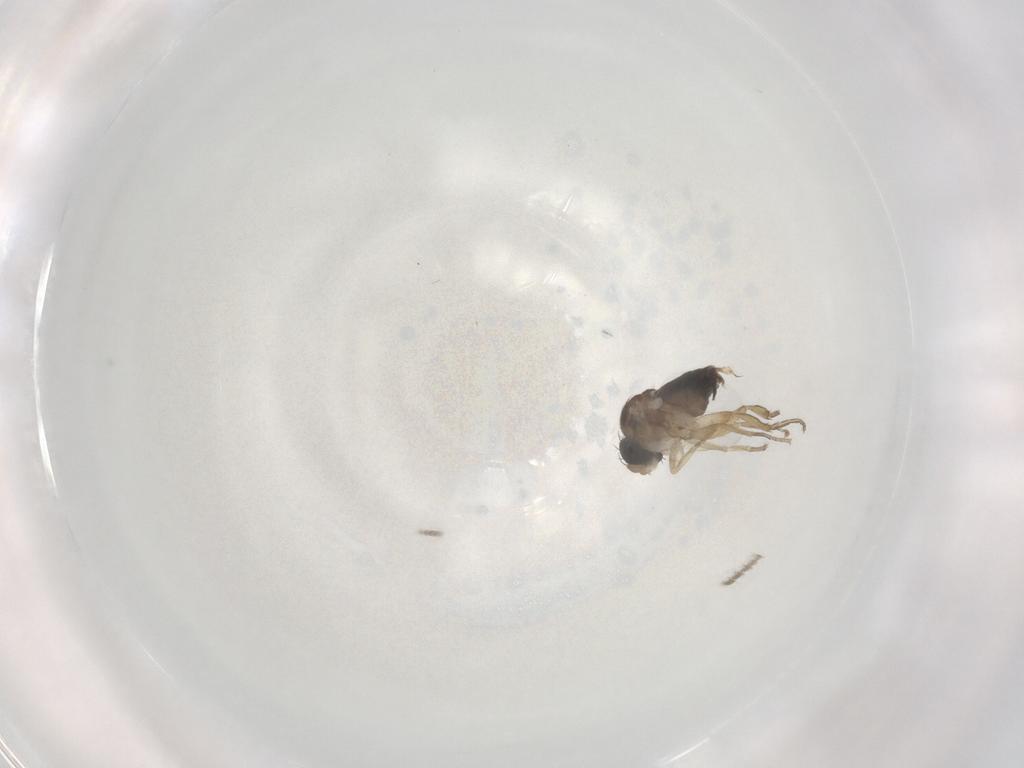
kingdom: Animalia
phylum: Arthropoda
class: Insecta
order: Diptera
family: Phoridae
